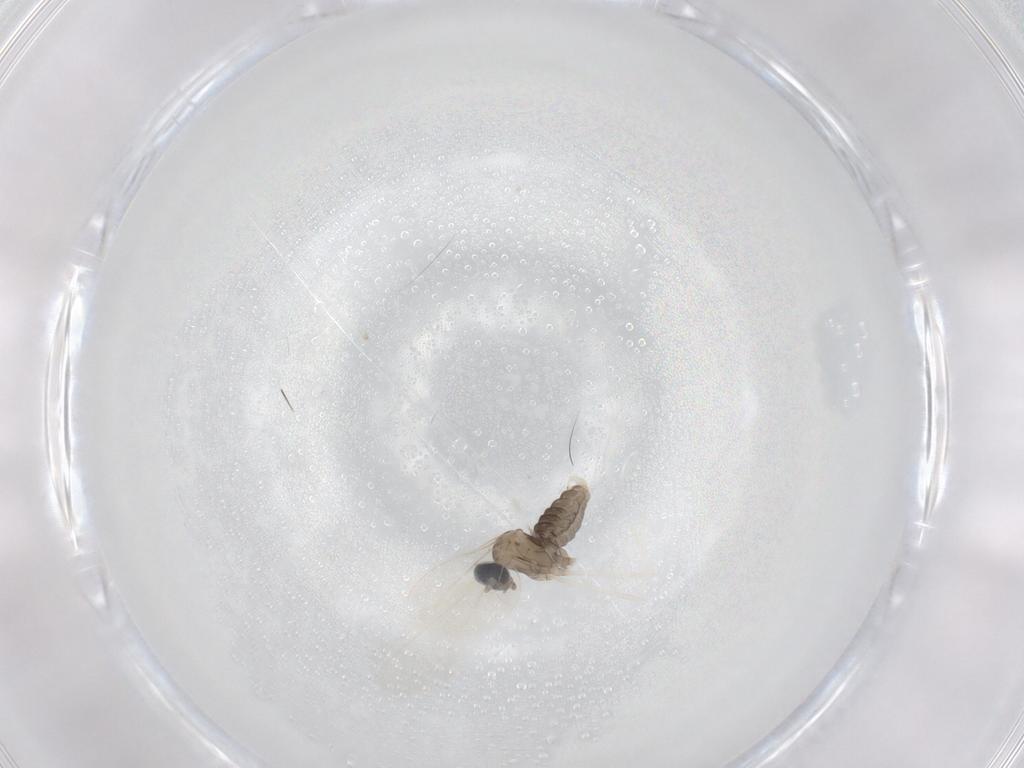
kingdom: Animalia
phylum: Arthropoda
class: Insecta
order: Diptera
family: Cecidomyiidae
